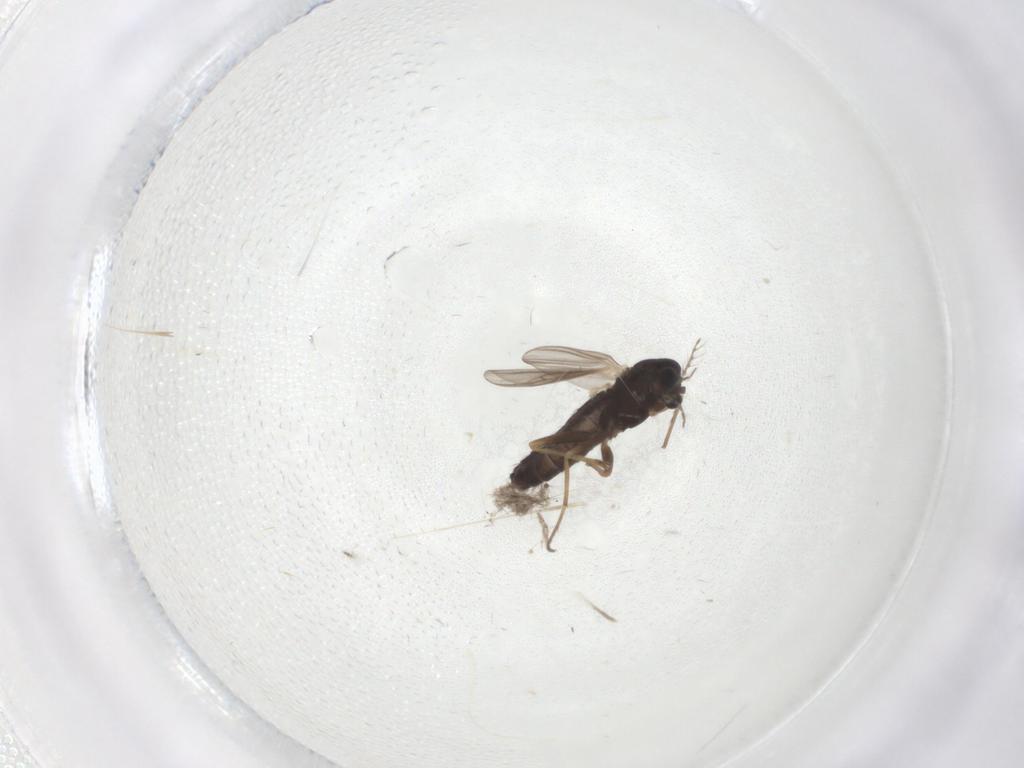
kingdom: Animalia
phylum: Arthropoda
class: Insecta
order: Diptera
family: Chironomidae
